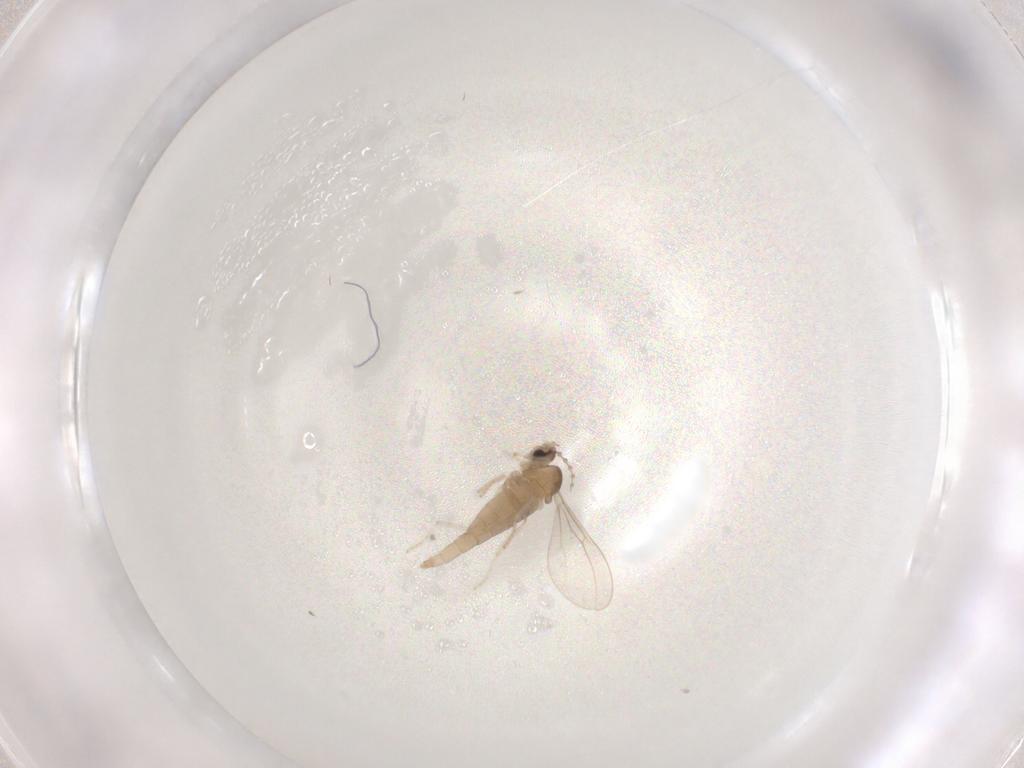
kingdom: Animalia
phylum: Arthropoda
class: Insecta
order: Diptera
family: Cecidomyiidae
